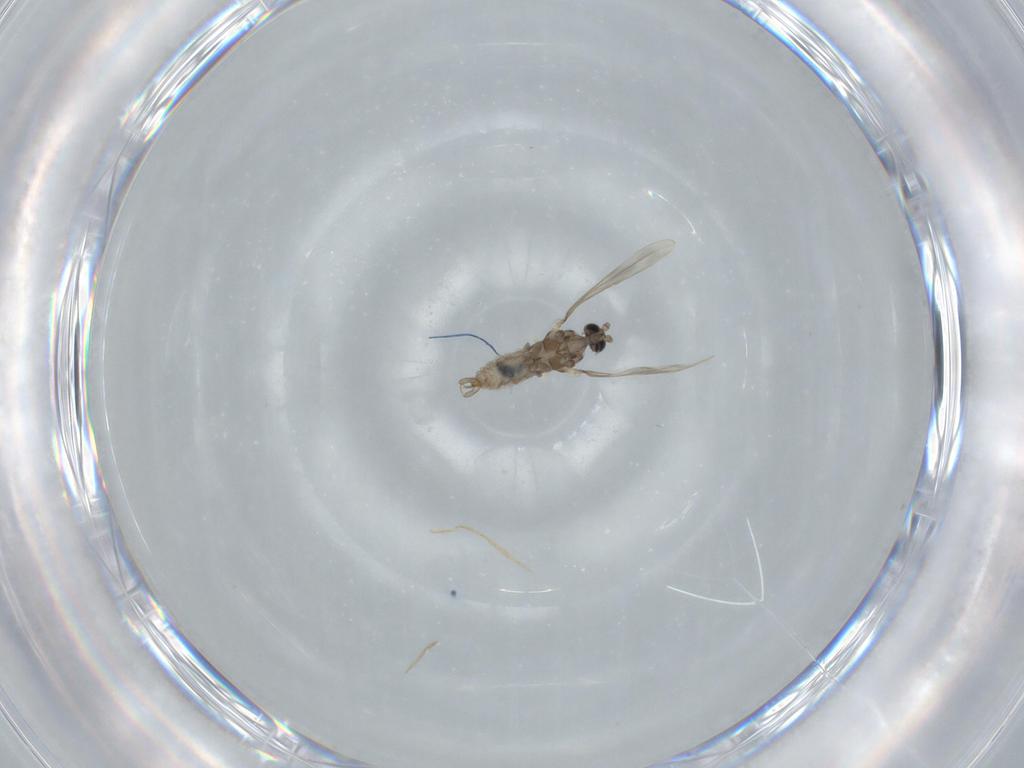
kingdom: Animalia
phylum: Arthropoda
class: Insecta
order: Diptera
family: Cecidomyiidae
